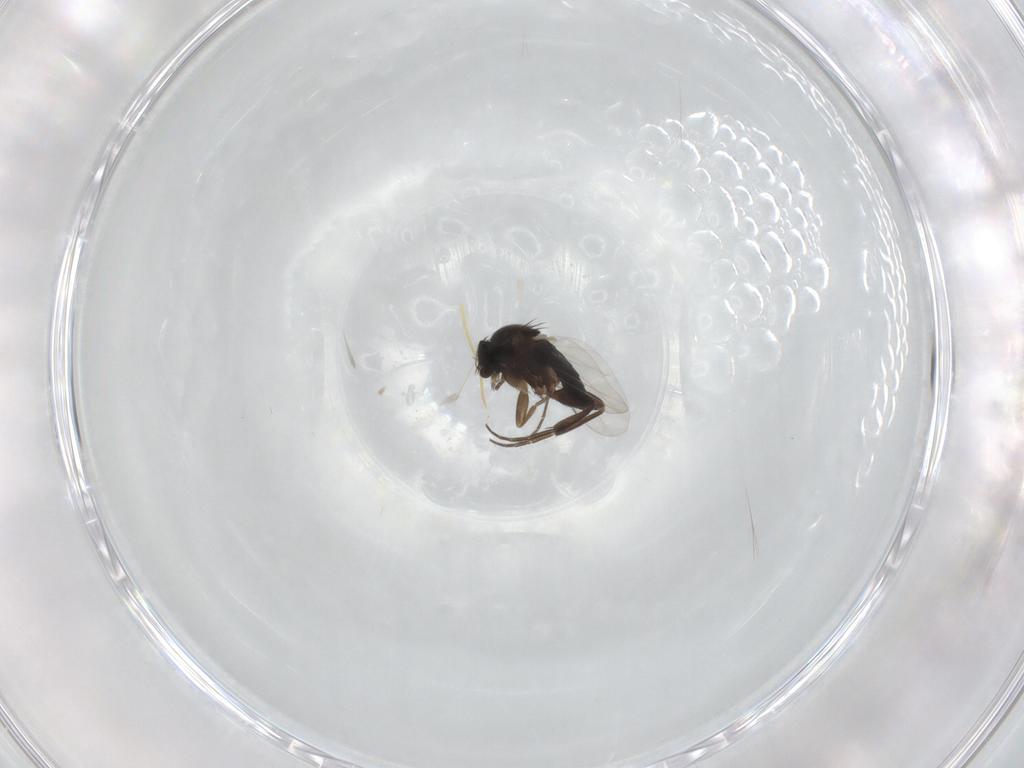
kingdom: Animalia
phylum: Arthropoda
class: Insecta
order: Diptera
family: Phoridae
